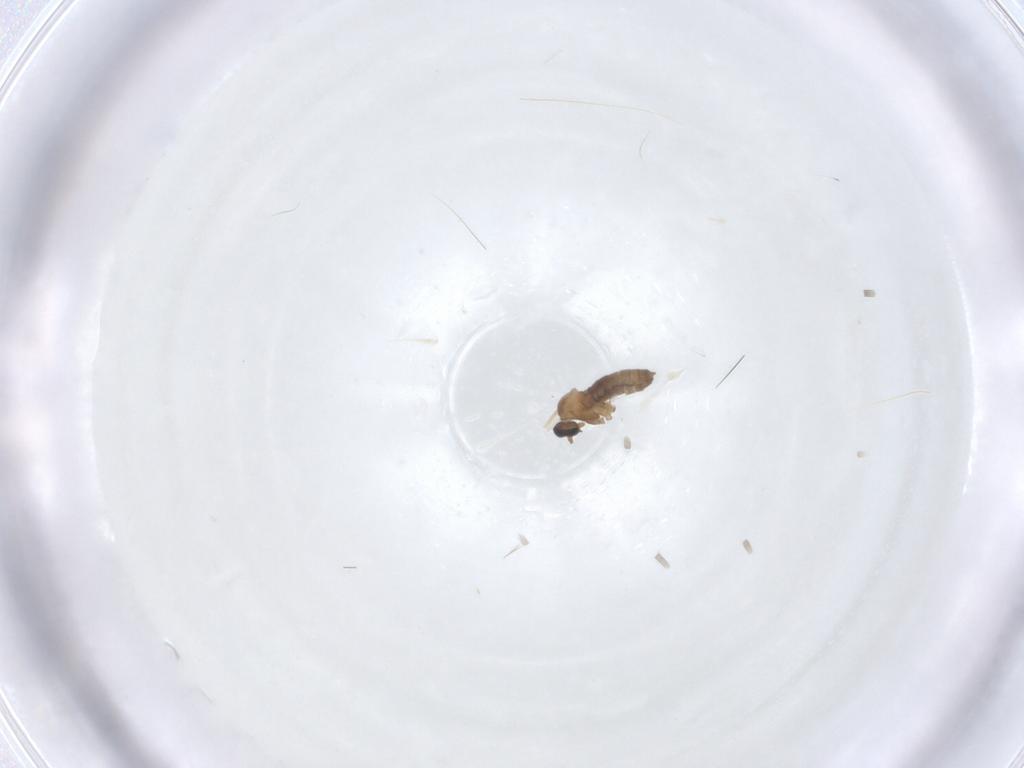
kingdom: Animalia
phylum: Arthropoda
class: Insecta
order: Diptera
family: Cecidomyiidae
